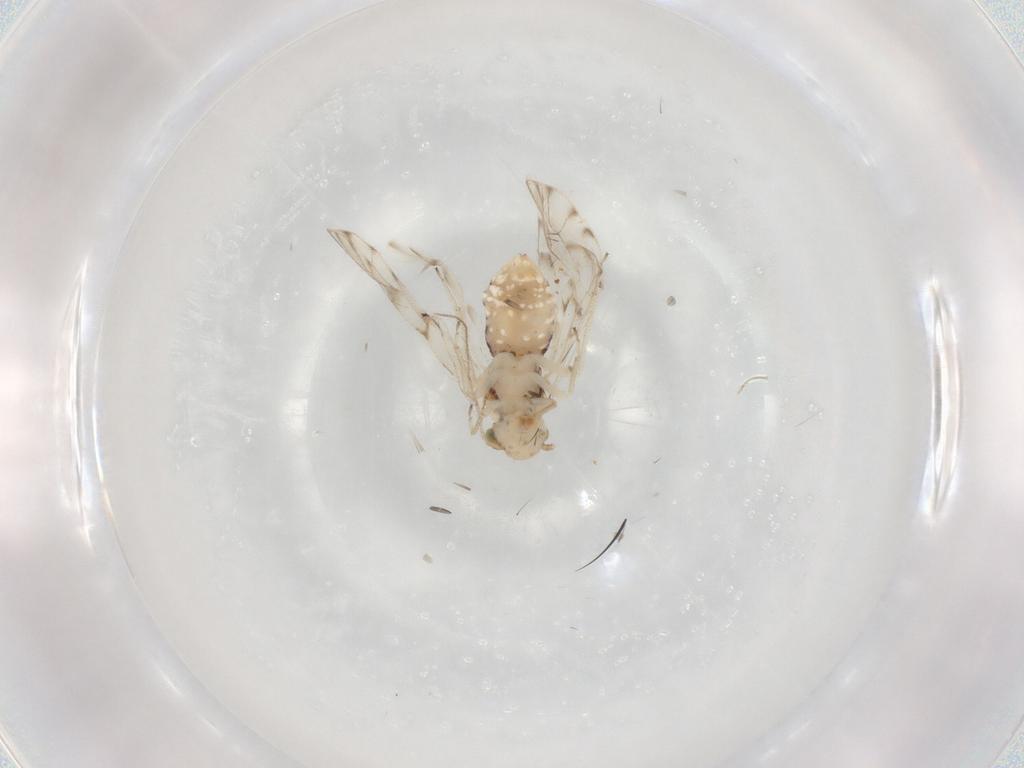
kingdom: Animalia
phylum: Arthropoda
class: Insecta
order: Psocodea
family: Ectopsocidae
